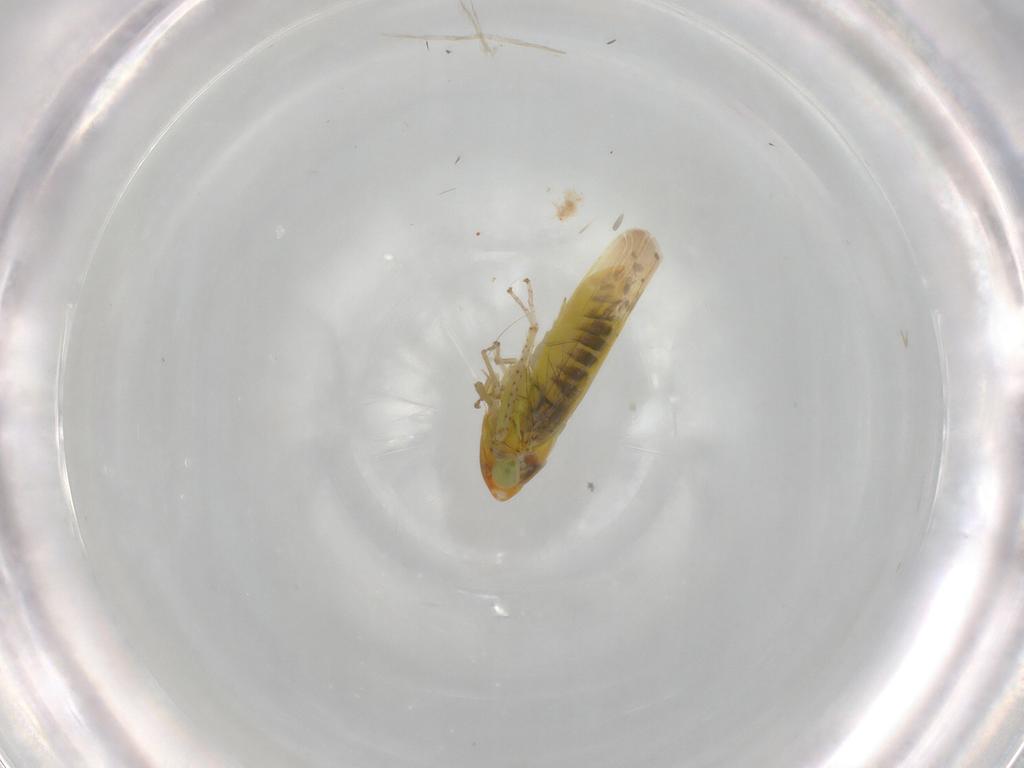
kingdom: Animalia
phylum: Arthropoda
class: Insecta
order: Hemiptera
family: Cicadellidae
